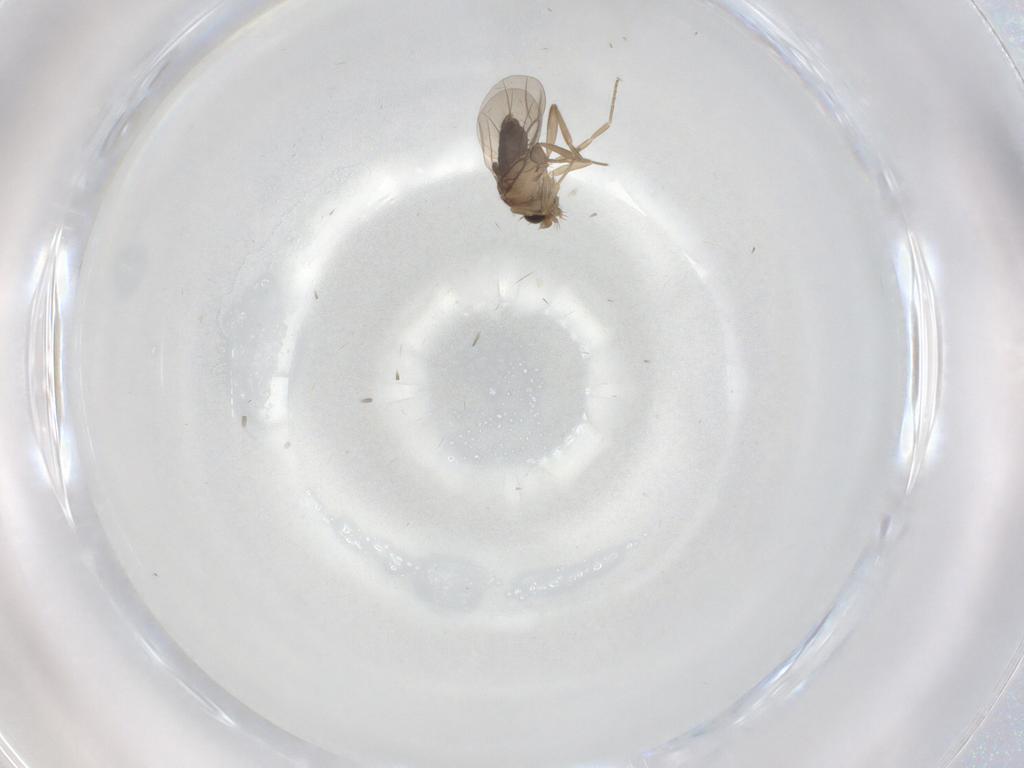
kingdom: Animalia
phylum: Arthropoda
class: Insecta
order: Diptera
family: Phoridae
